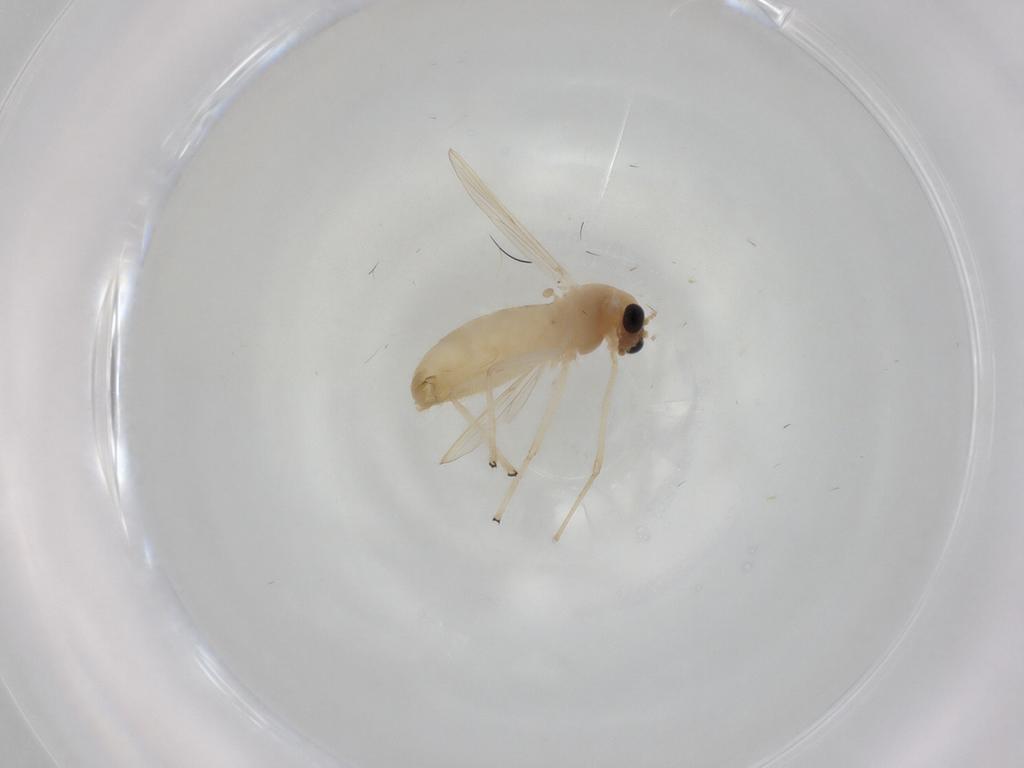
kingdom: Animalia
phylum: Arthropoda
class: Insecta
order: Diptera
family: Chironomidae
